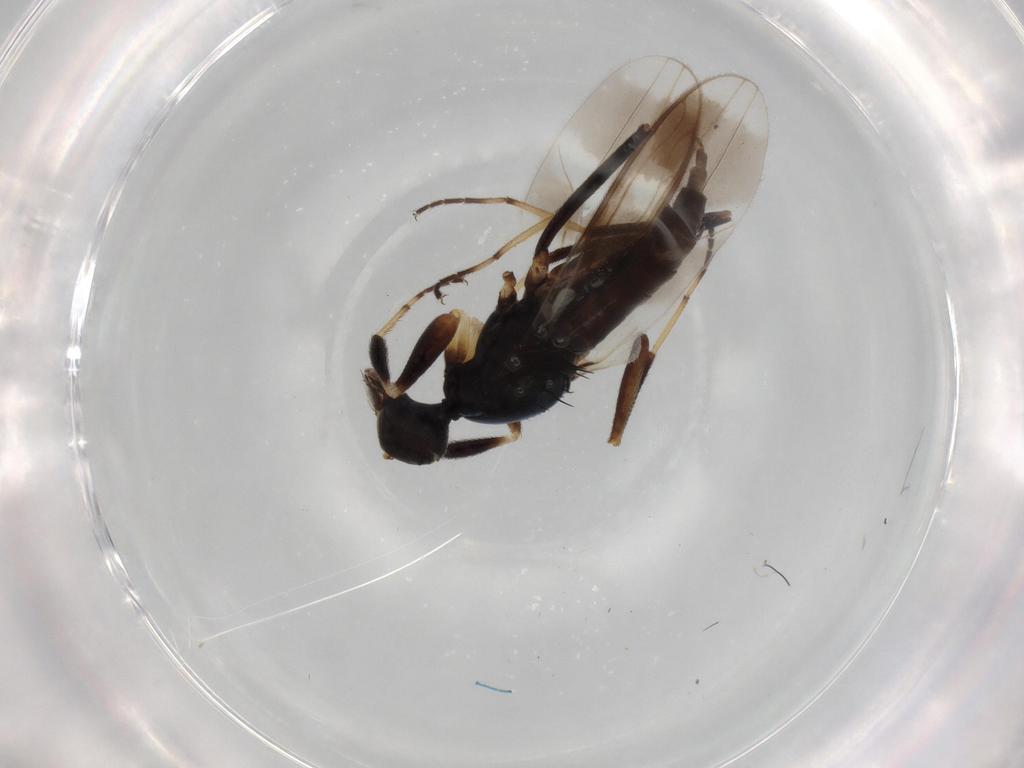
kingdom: Animalia
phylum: Arthropoda
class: Insecta
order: Diptera
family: Hybotidae
